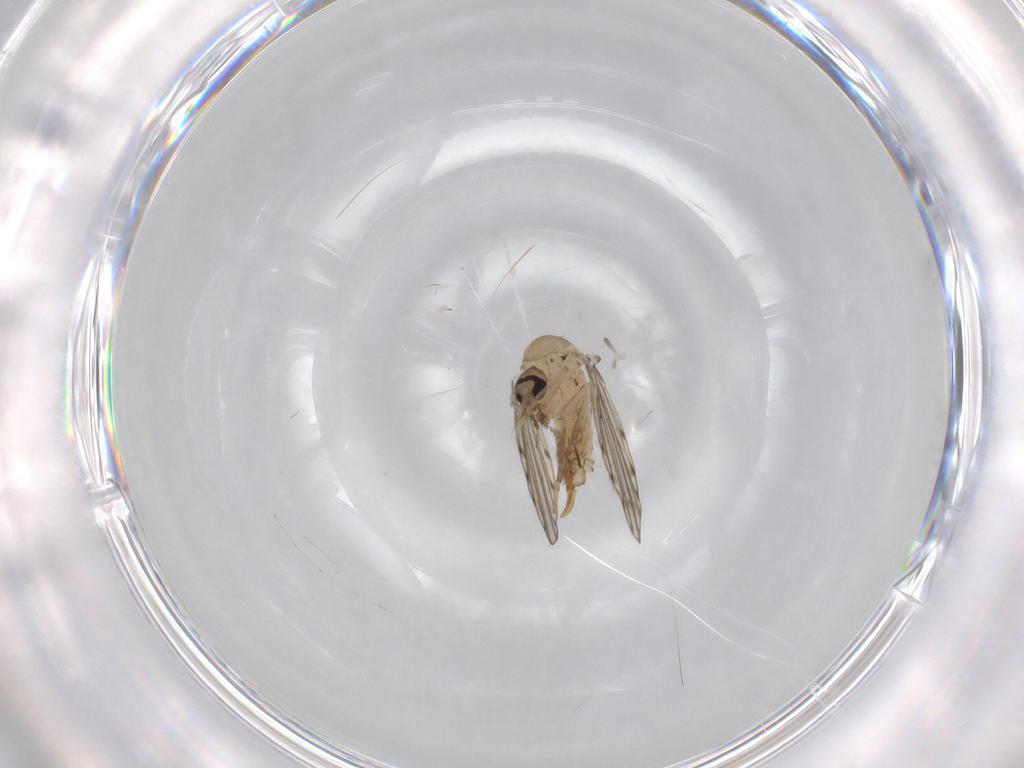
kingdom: Animalia
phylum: Arthropoda
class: Insecta
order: Diptera
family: Psychodidae
